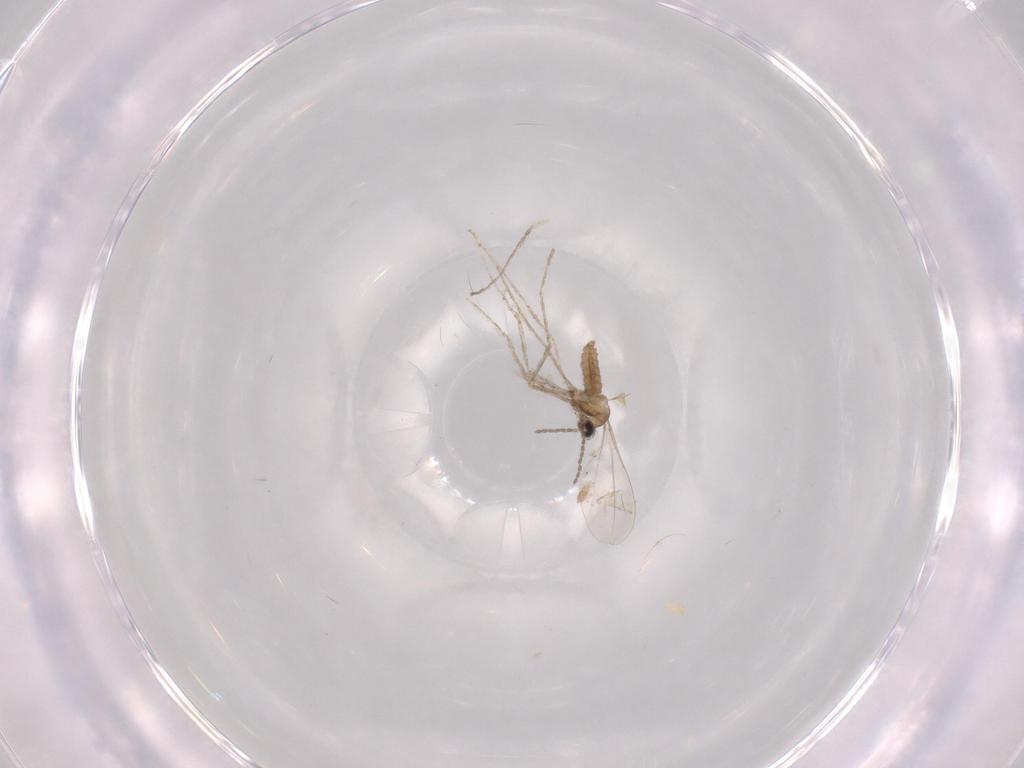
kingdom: Animalia
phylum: Arthropoda
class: Insecta
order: Diptera
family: Cecidomyiidae
